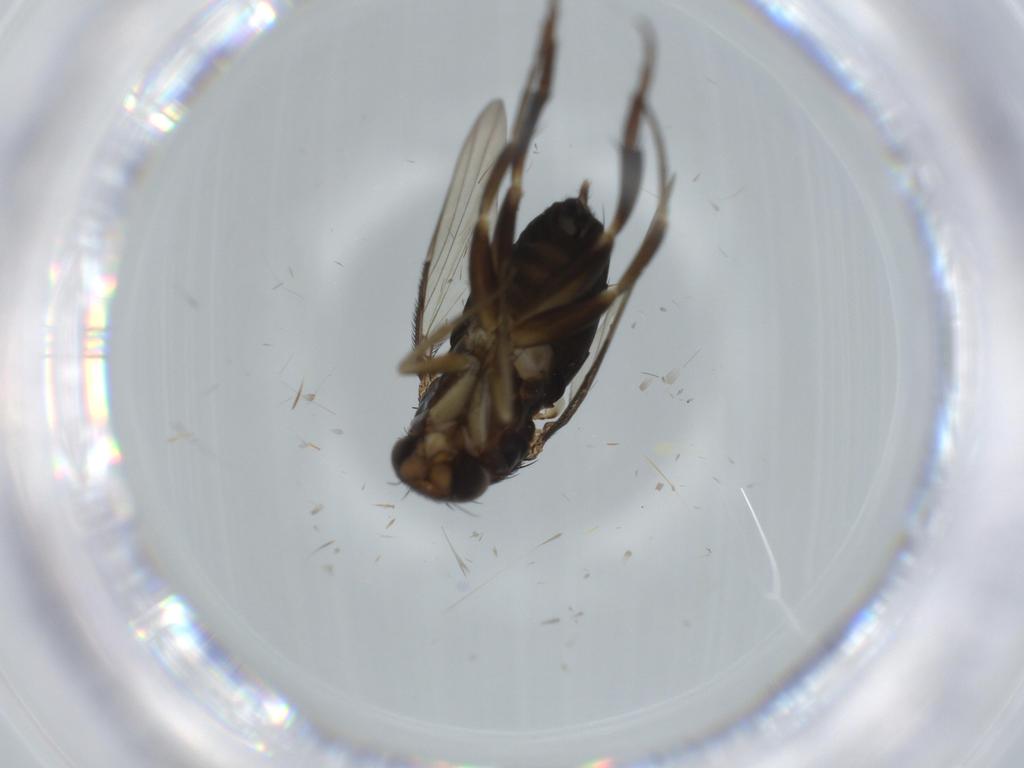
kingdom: Animalia
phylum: Arthropoda
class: Insecta
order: Diptera
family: Phoridae
